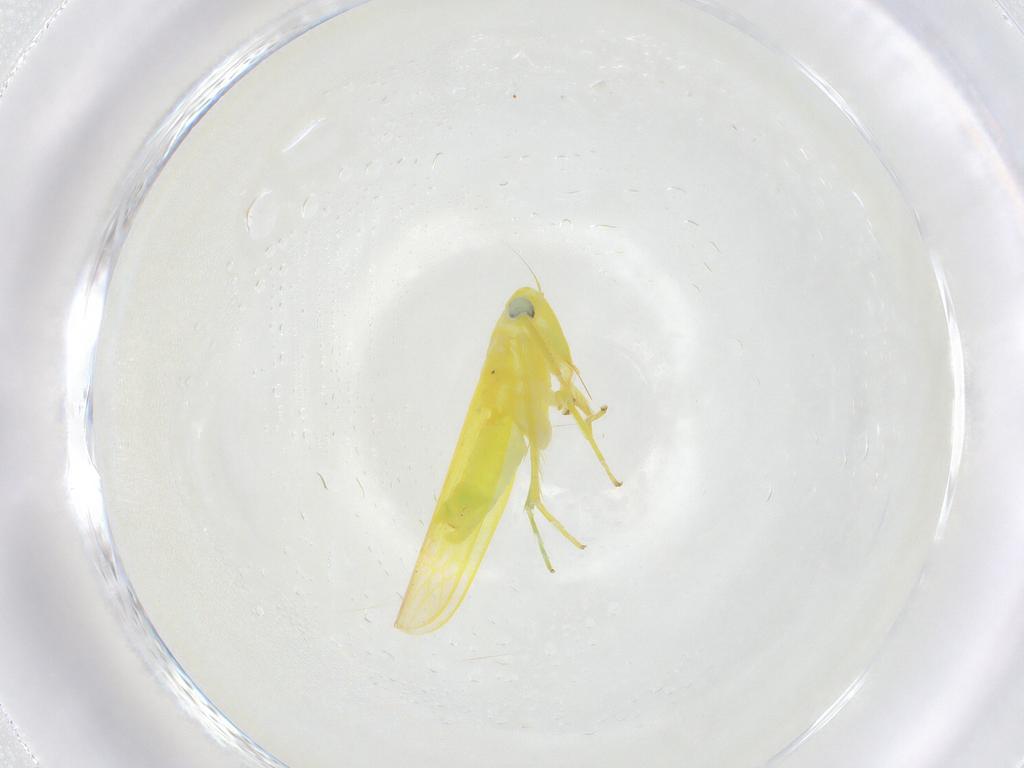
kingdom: Animalia
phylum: Arthropoda
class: Insecta
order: Hemiptera
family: Cicadellidae
